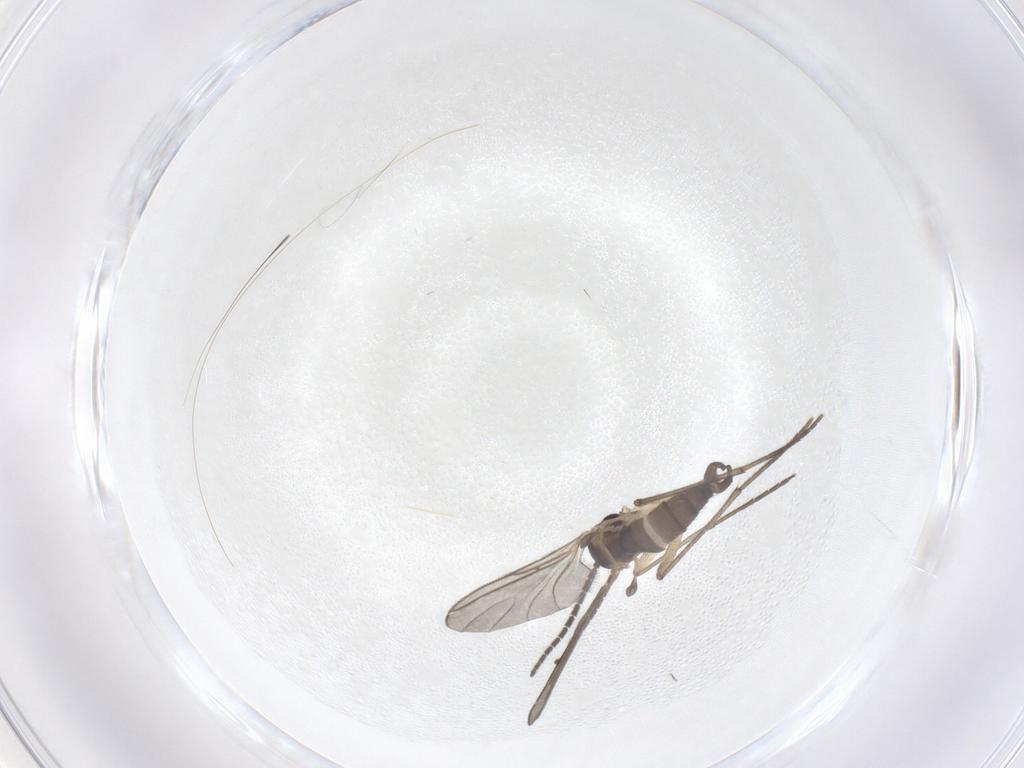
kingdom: Animalia
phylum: Arthropoda
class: Insecta
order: Diptera
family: Sciaridae
